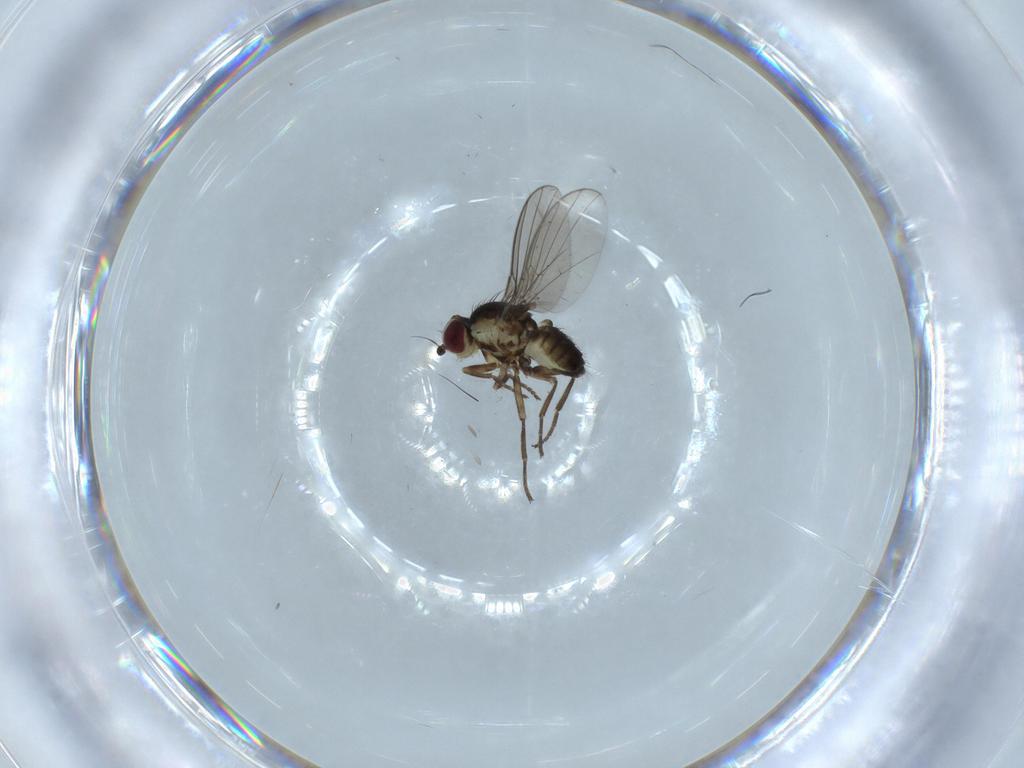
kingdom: Animalia
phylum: Arthropoda
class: Insecta
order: Diptera
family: Agromyzidae
